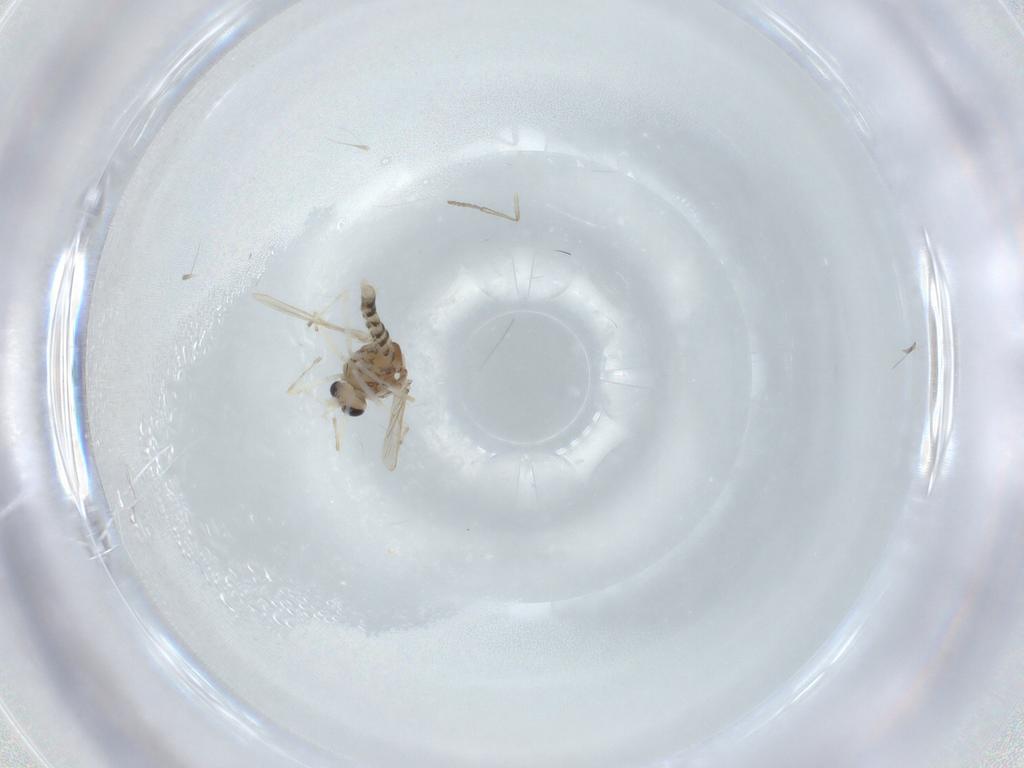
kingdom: Animalia
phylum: Arthropoda
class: Insecta
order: Diptera
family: Chironomidae
